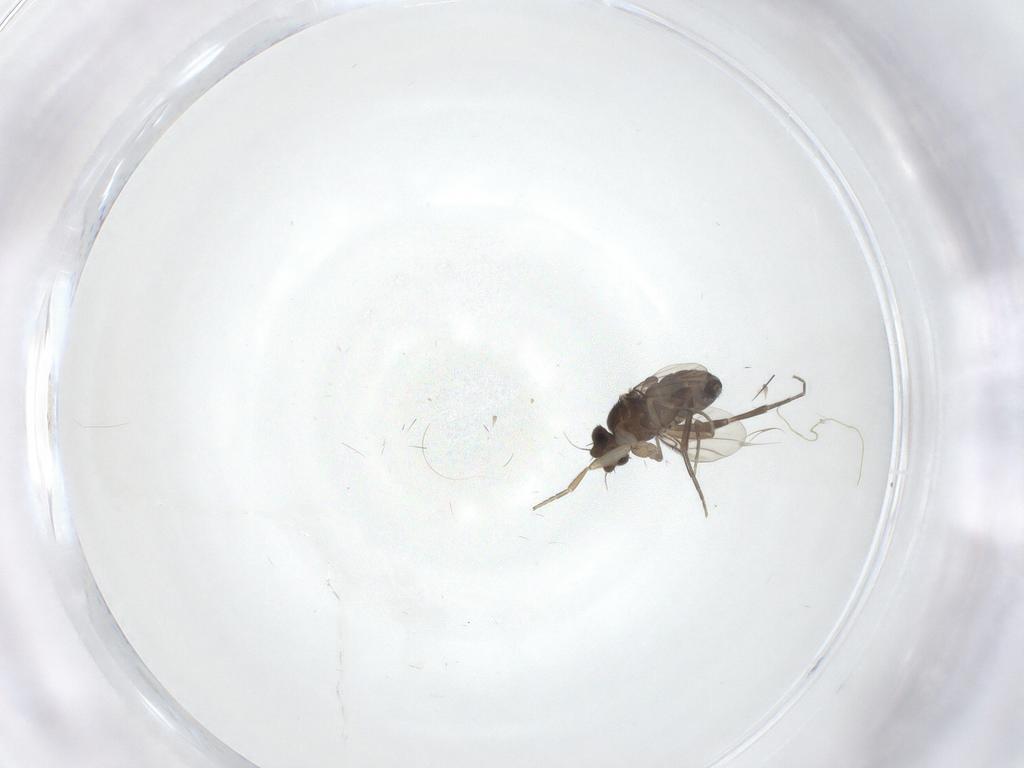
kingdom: Animalia
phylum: Arthropoda
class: Insecta
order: Diptera
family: Phoridae
